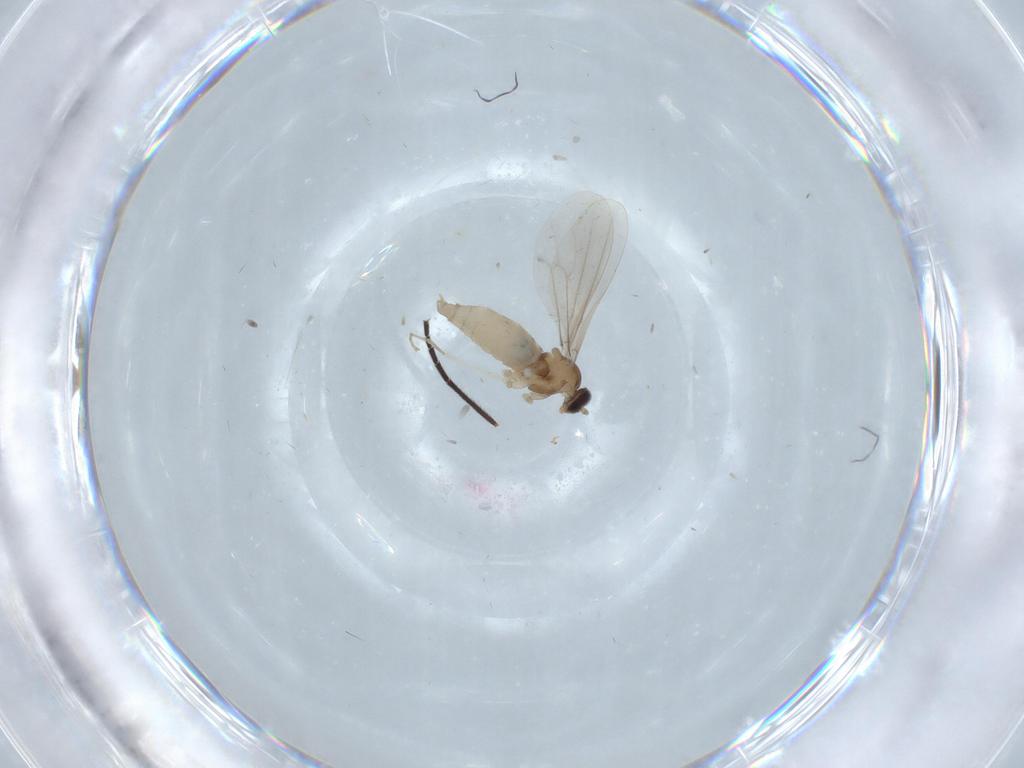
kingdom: Animalia
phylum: Arthropoda
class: Insecta
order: Diptera
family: Cecidomyiidae
